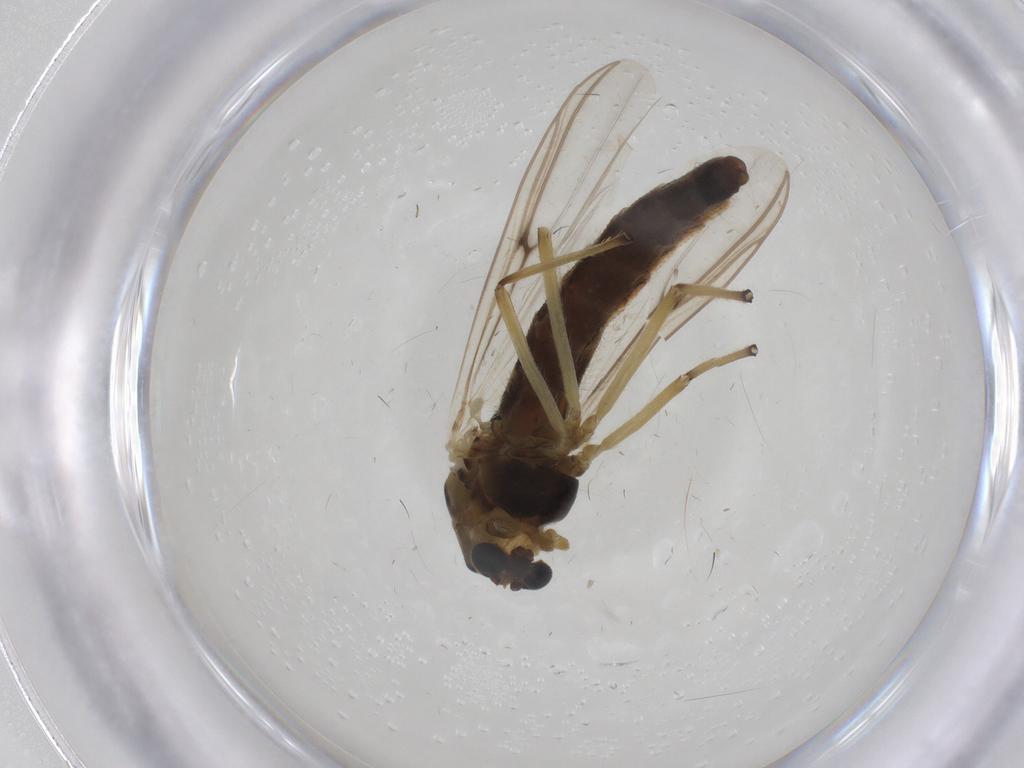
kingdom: Animalia
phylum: Arthropoda
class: Insecta
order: Diptera
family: Chironomidae
